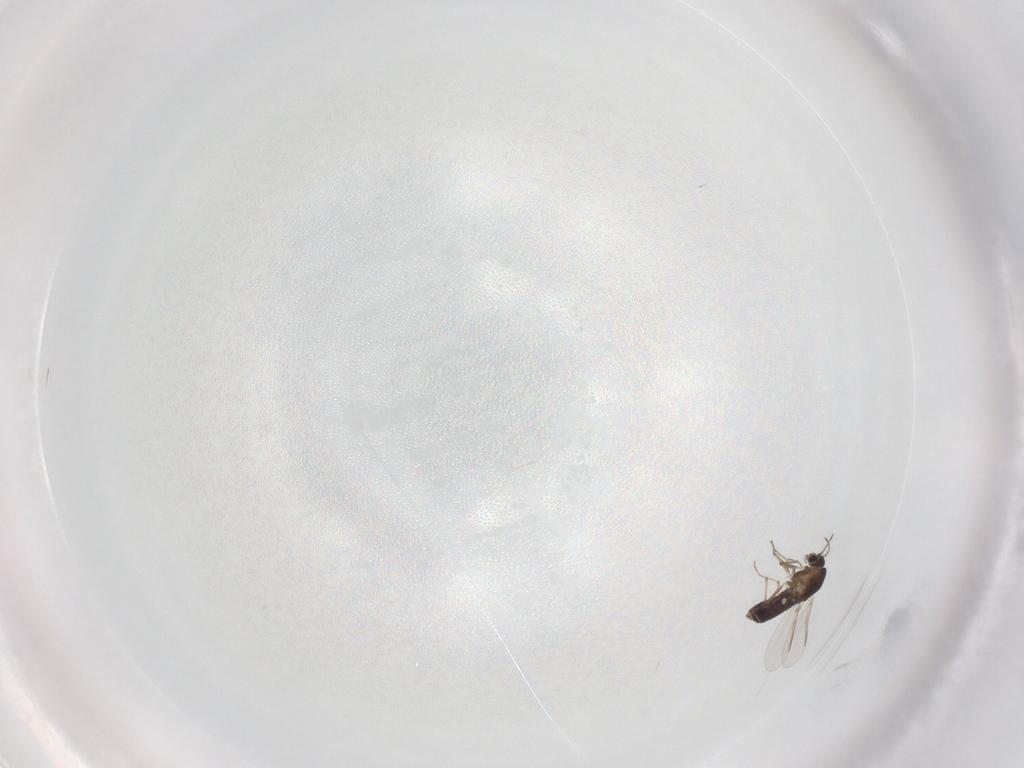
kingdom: Animalia
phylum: Arthropoda
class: Insecta
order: Diptera
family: Chironomidae
